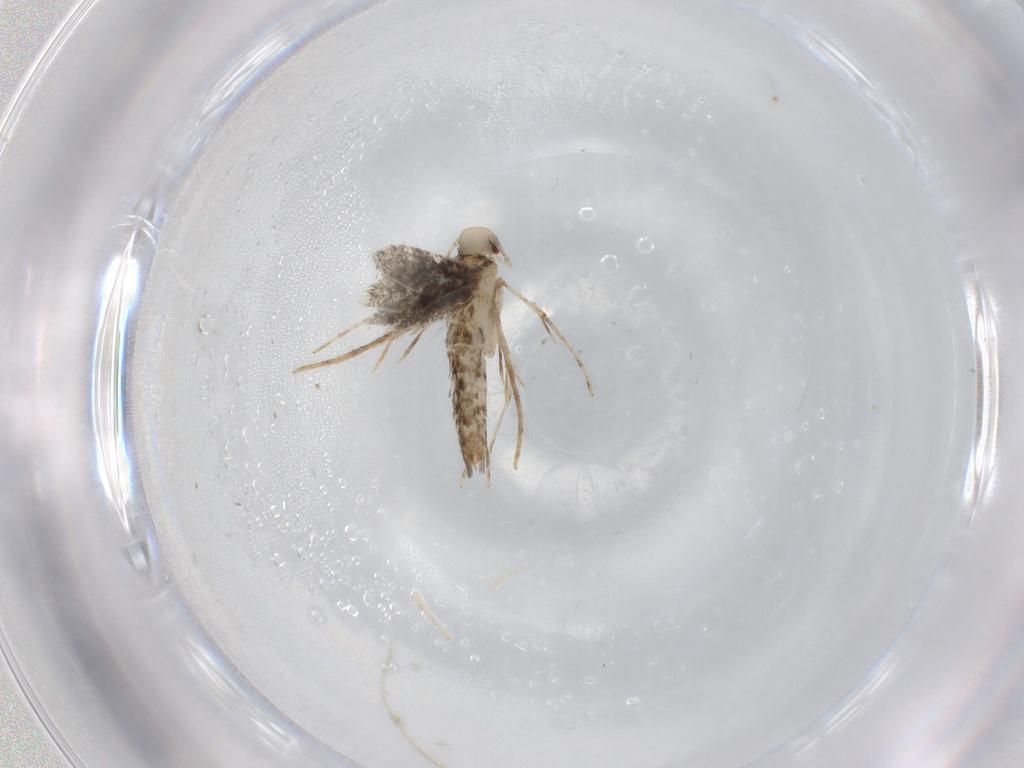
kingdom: Animalia
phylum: Arthropoda
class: Insecta
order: Lepidoptera
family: Gracillariidae
